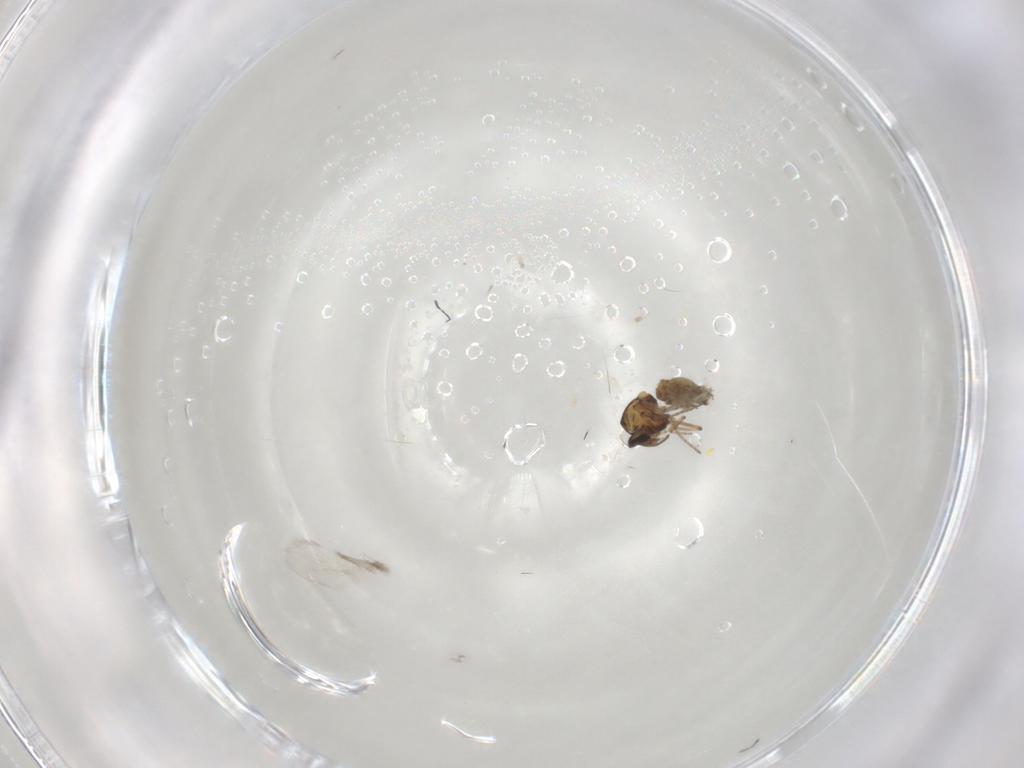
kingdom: Animalia
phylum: Arthropoda
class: Insecta
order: Diptera
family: Ceratopogonidae
